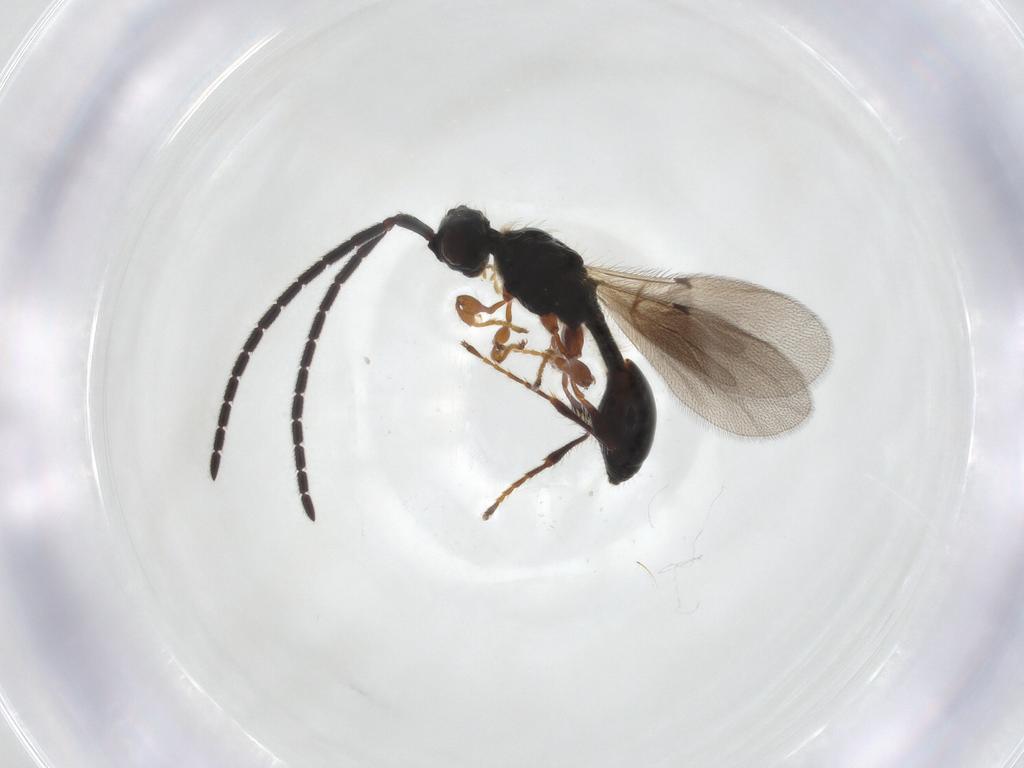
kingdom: Animalia
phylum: Arthropoda
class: Insecta
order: Hymenoptera
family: Diapriidae
